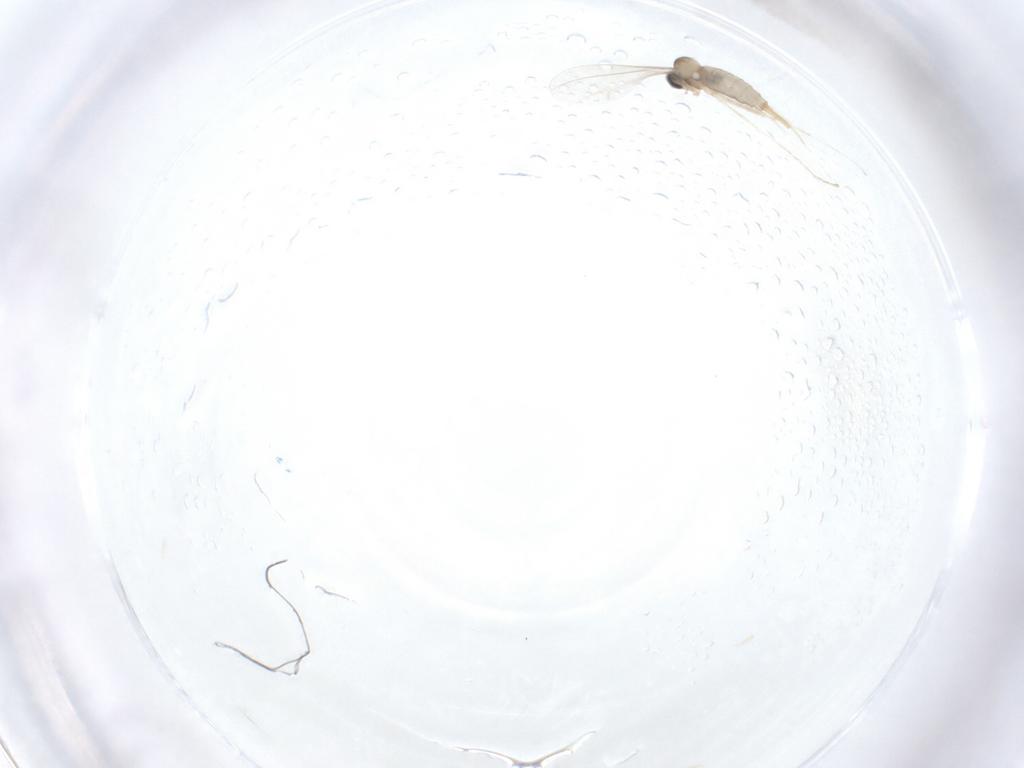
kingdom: Animalia
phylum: Arthropoda
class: Insecta
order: Diptera
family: Cecidomyiidae
